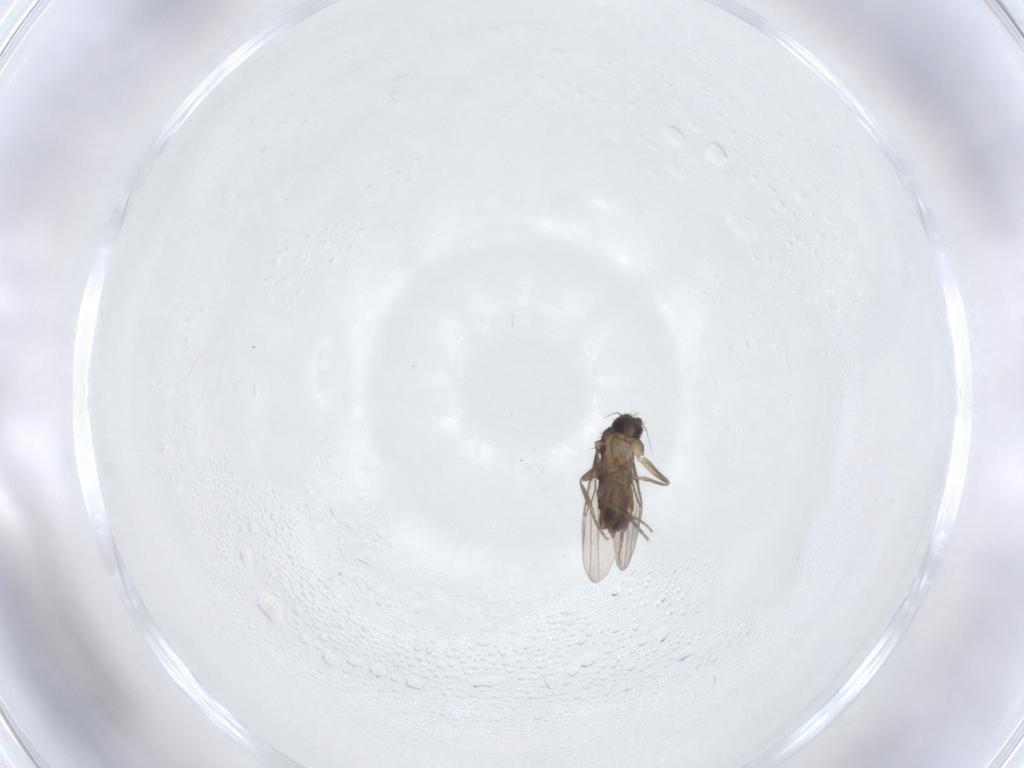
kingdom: Animalia
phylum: Arthropoda
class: Insecta
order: Diptera
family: Phoridae
